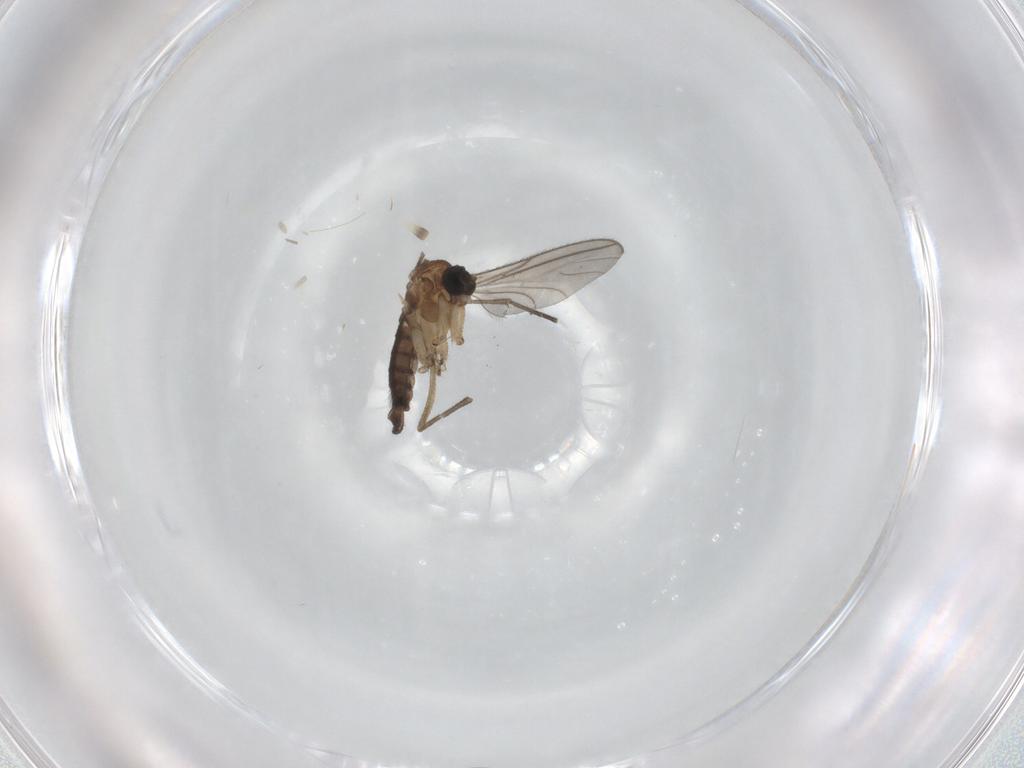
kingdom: Animalia
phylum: Arthropoda
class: Insecta
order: Diptera
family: Sciaridae
